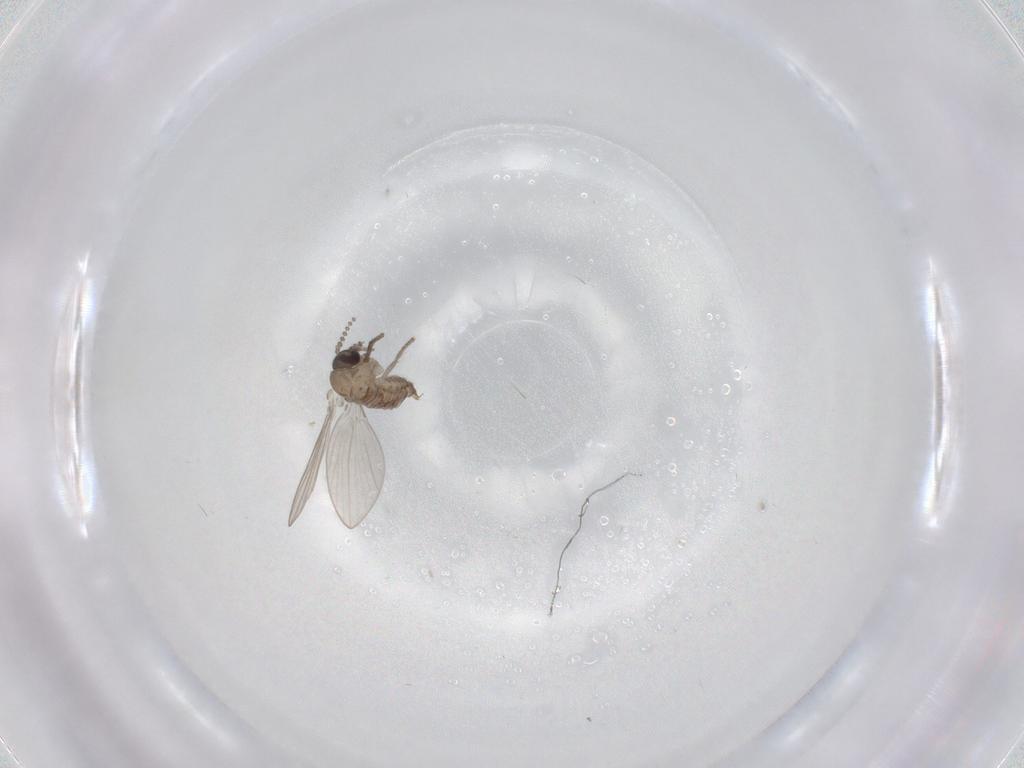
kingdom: Animalia
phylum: Arthropoda
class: Insecta
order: Diptera
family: Psychodidae
